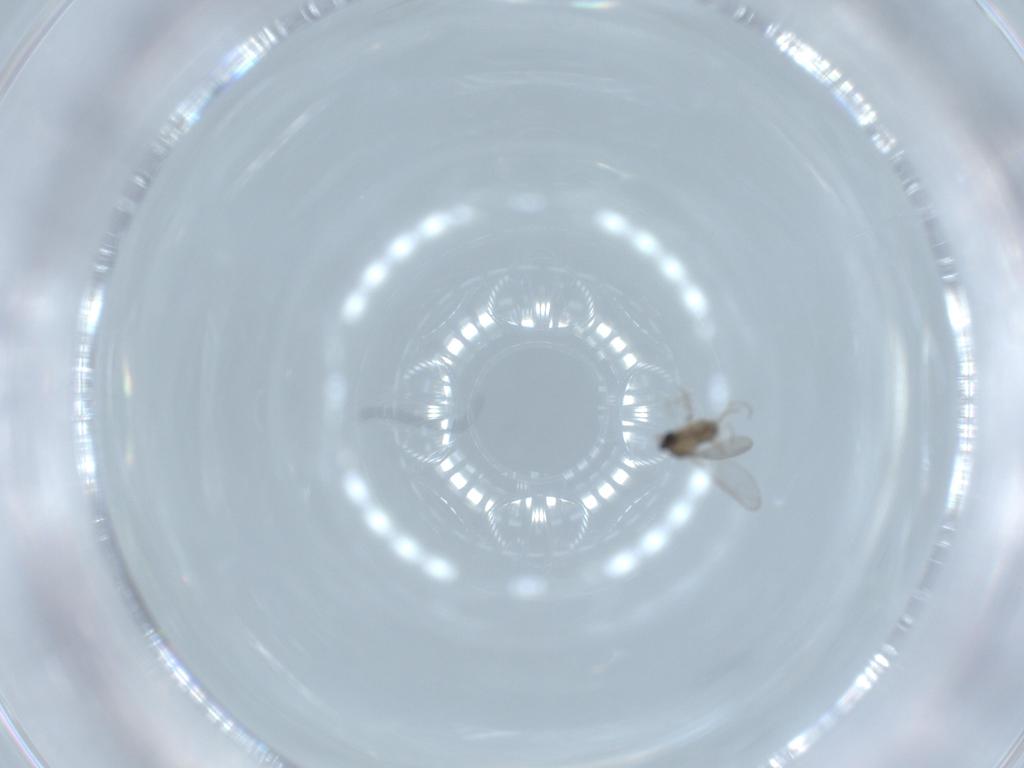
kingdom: Animalia
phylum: Arthropoda
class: Insecta
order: Diptera
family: Cecidomyiidae
